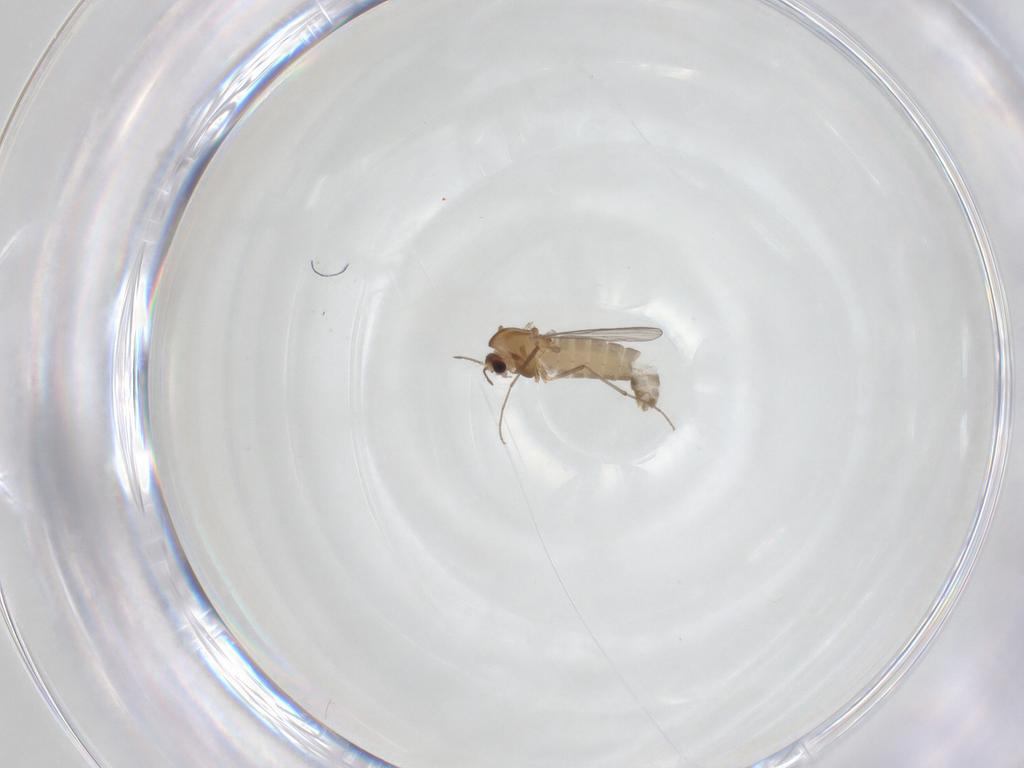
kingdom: Animalia
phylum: Arthropoda
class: Insecta
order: Diptera
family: Chironomidae
